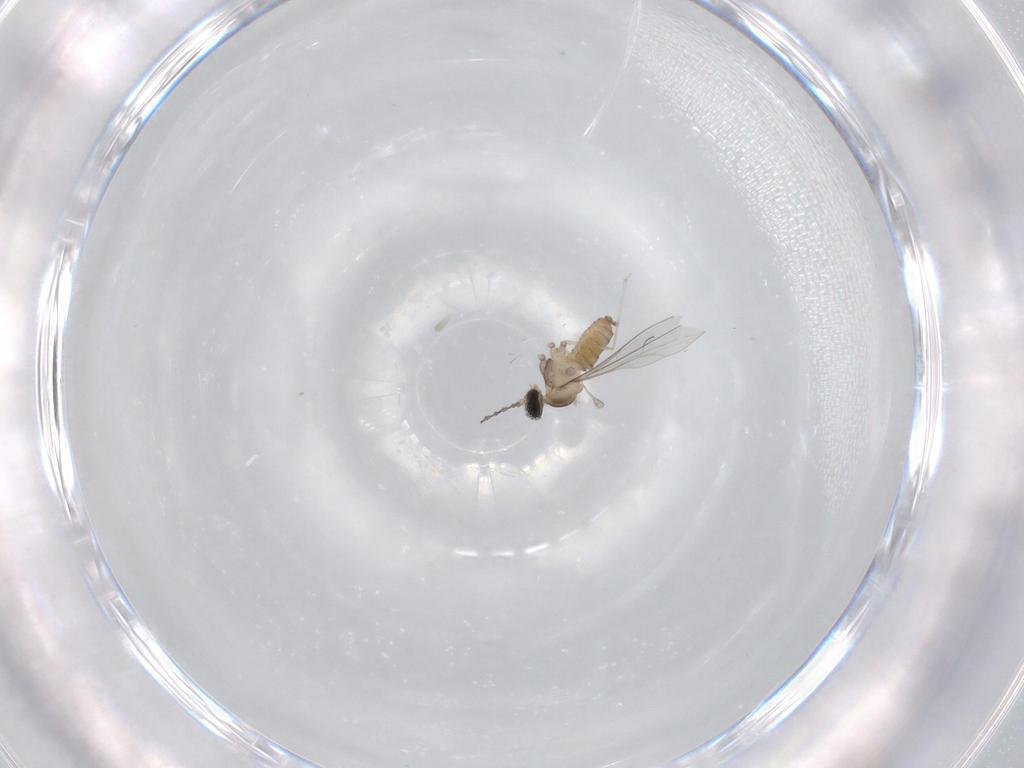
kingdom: Animalia
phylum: Arthropoda
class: Insecta
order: Diptera
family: Cecidomyiidae
